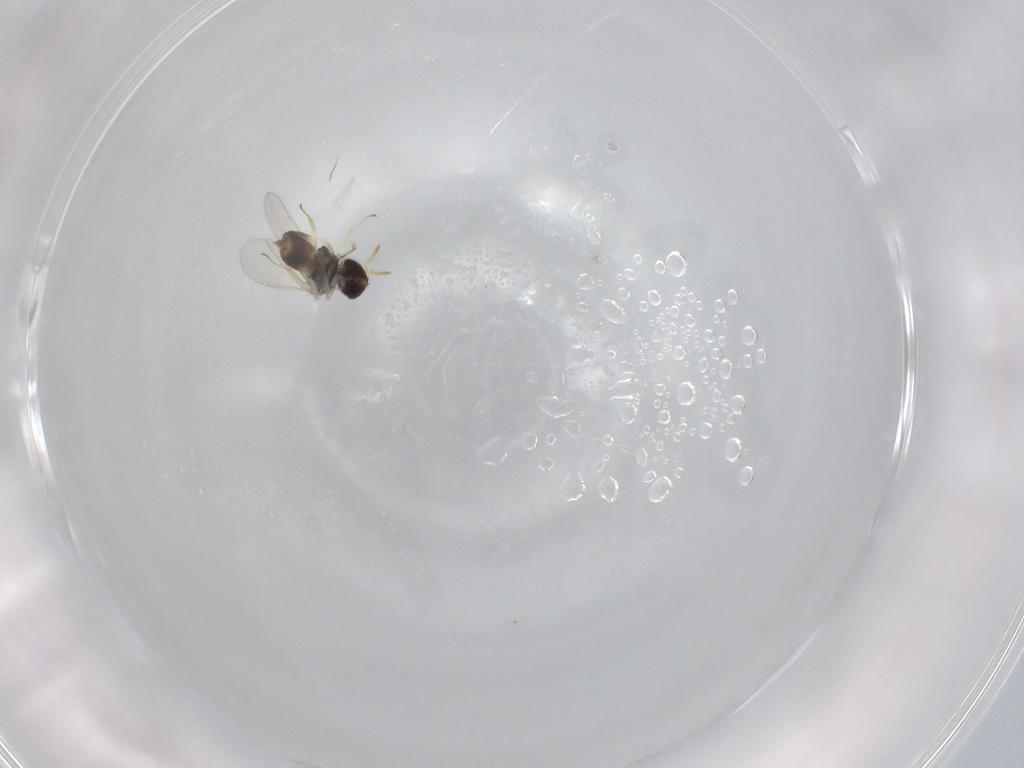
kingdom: Animalia
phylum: Arthropoda
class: Insecta
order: Hymenoptera
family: Aphelinidae
